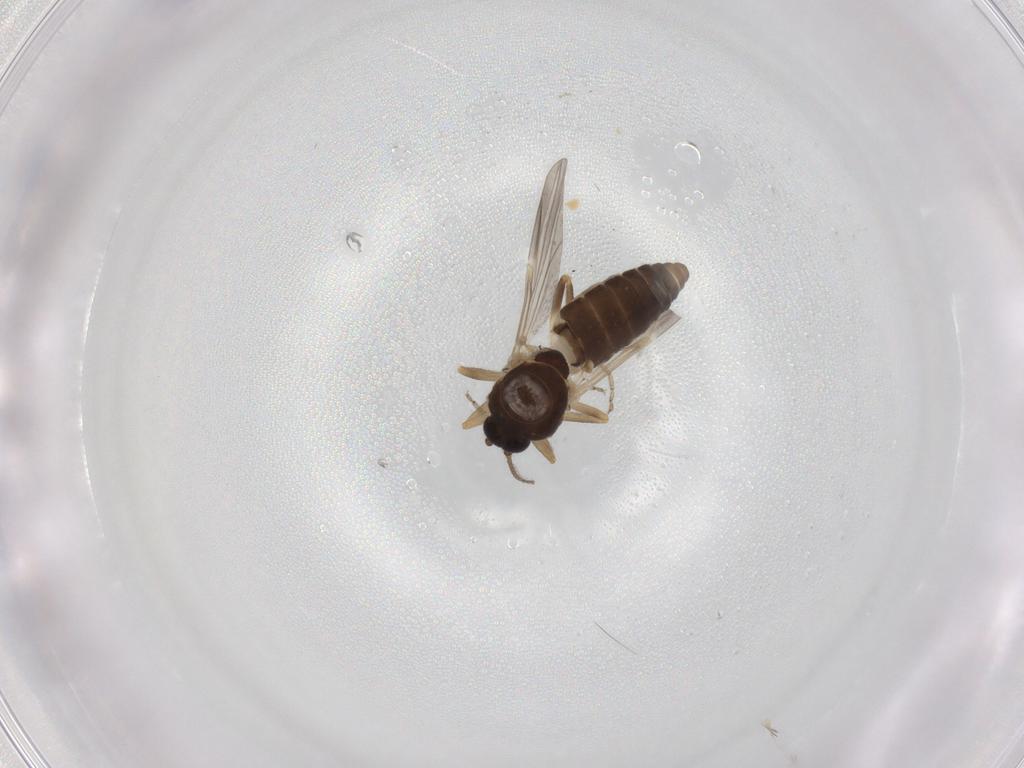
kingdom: Animalia
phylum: Arthropoda
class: Insecta
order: Diptera
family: Ceratopogonidae
